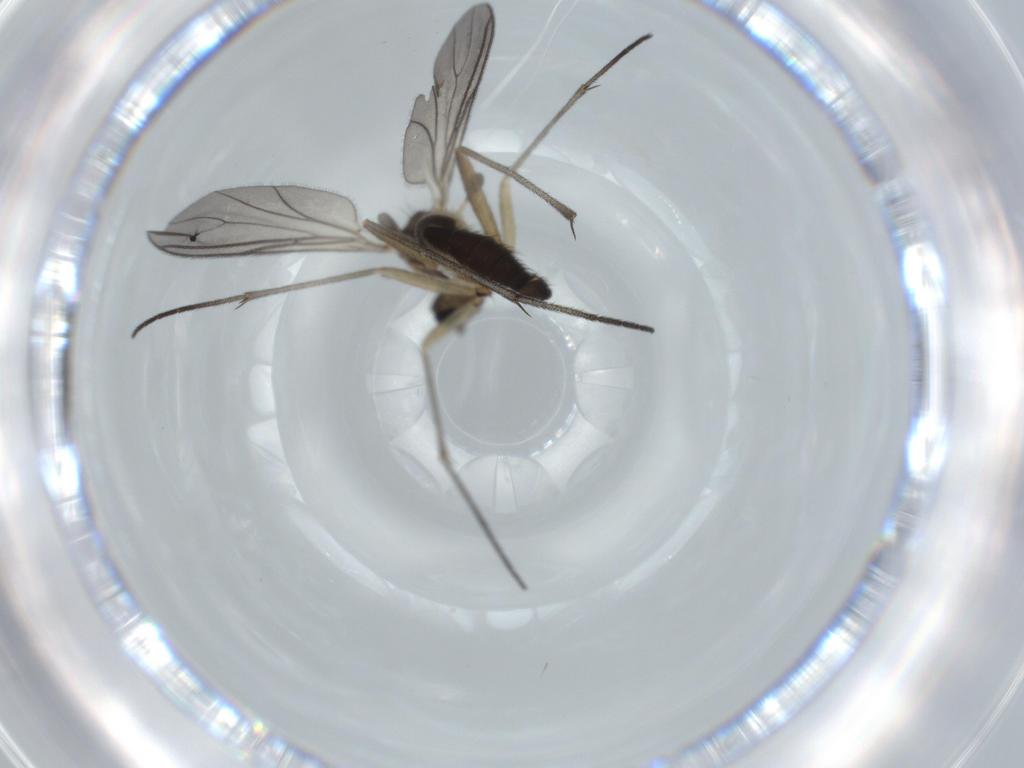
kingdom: Animalia
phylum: Arthropoda
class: Insecta
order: Diptera
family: Sciaridae
